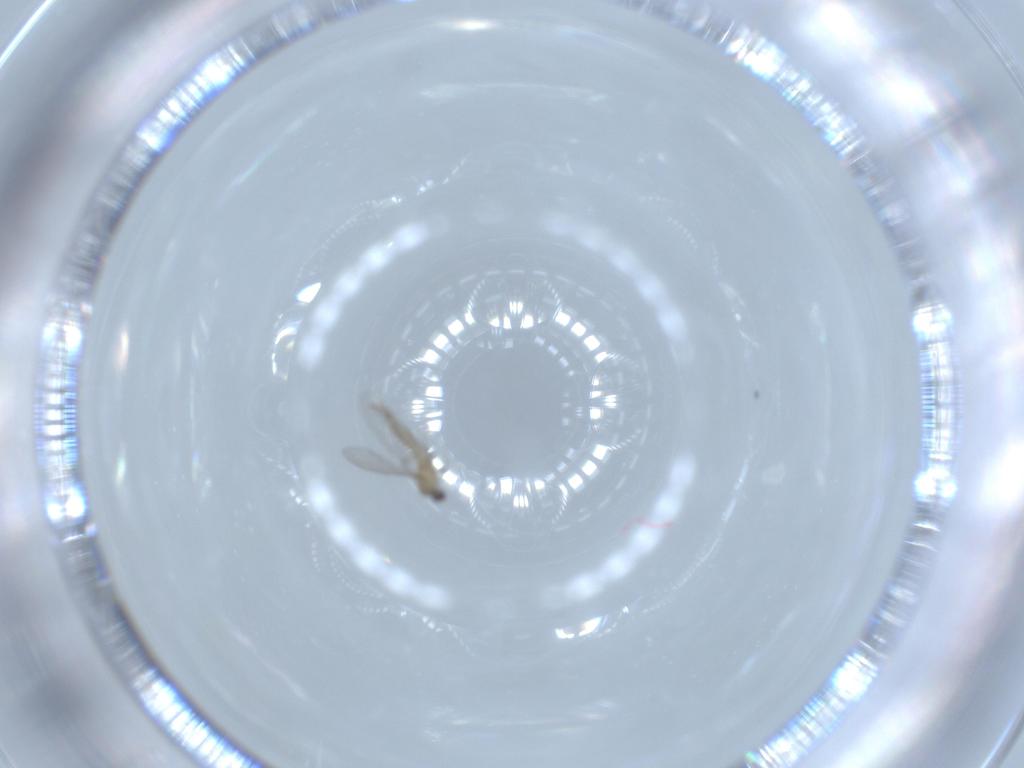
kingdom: Animalia
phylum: Arthropoda
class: Insecta
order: Diptera
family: Cecidomyiidae
